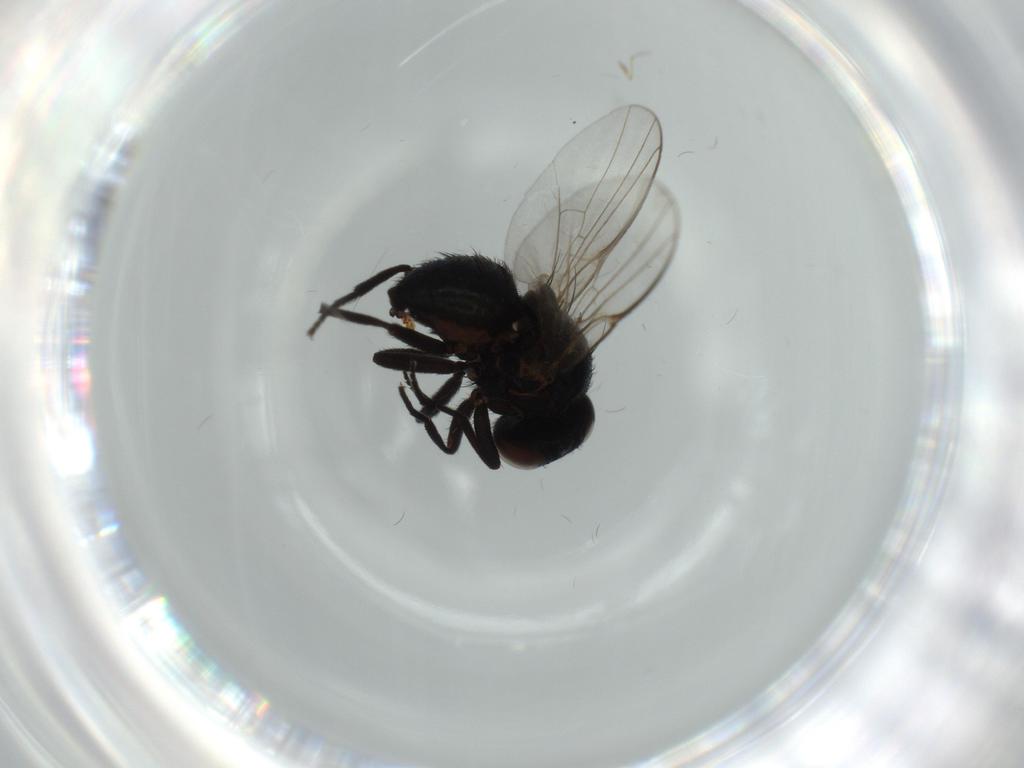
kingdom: Animalia
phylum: Arthropoda
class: Insecta
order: Diptera
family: Agromyzidae
